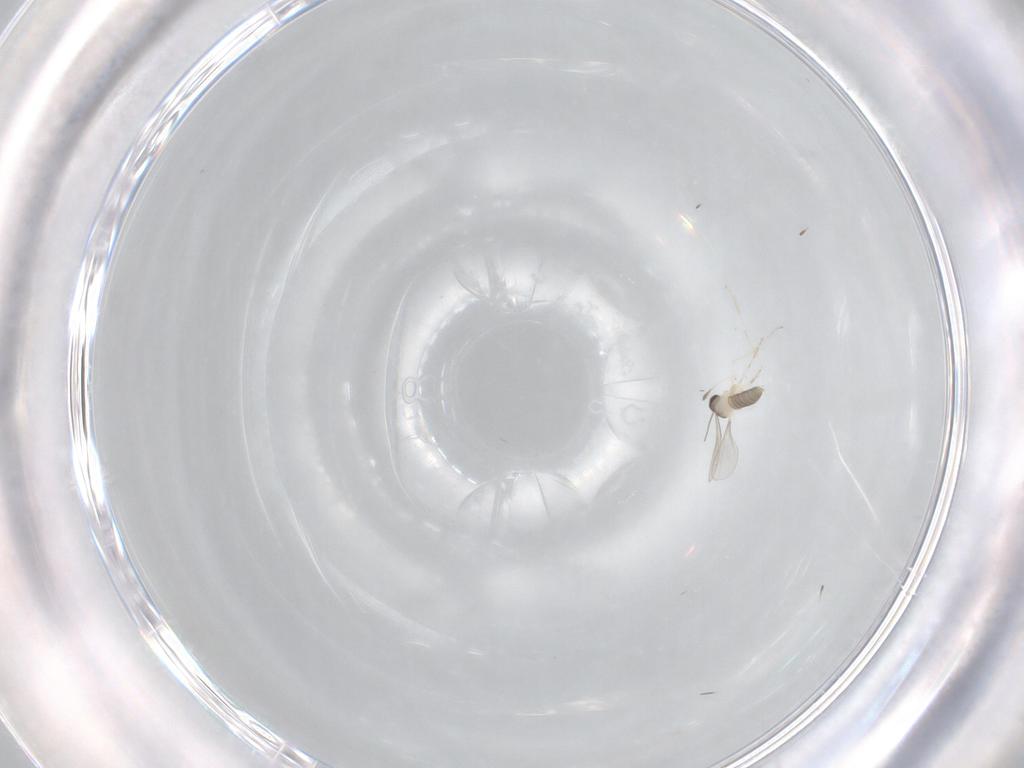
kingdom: Animalia
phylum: Arthropoda
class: Insecta
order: Diptera
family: Cecidomyiidae
